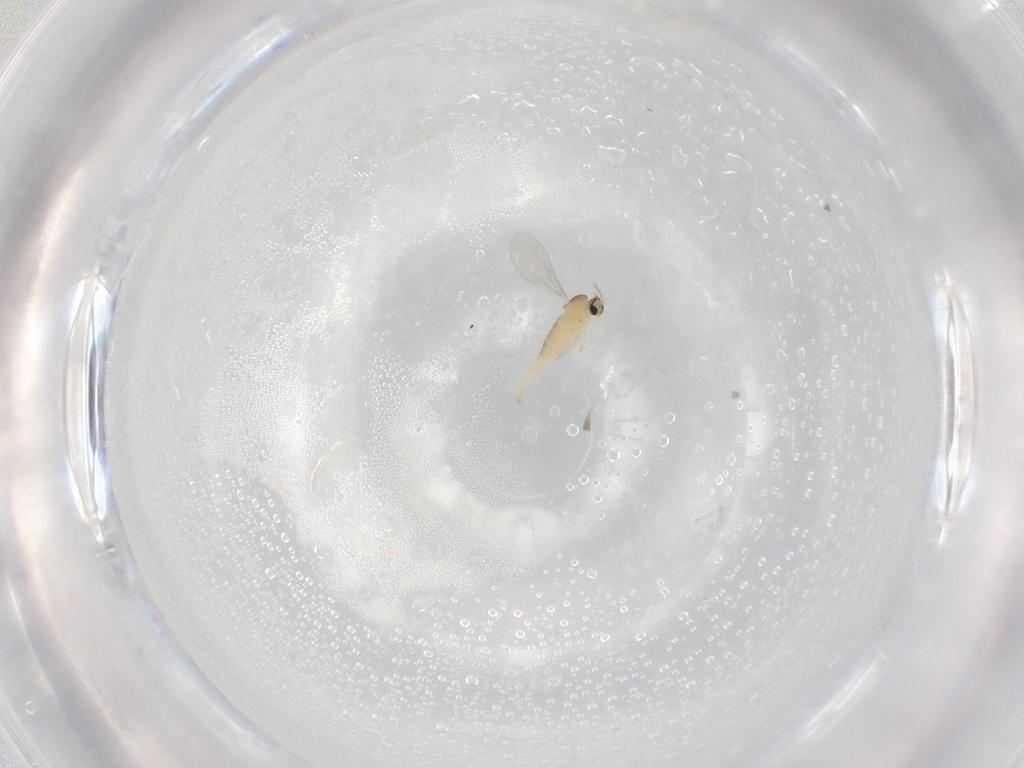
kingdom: Animalia
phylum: Arthropoda
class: Insecta
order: Diptera
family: Cecidomyiidae
